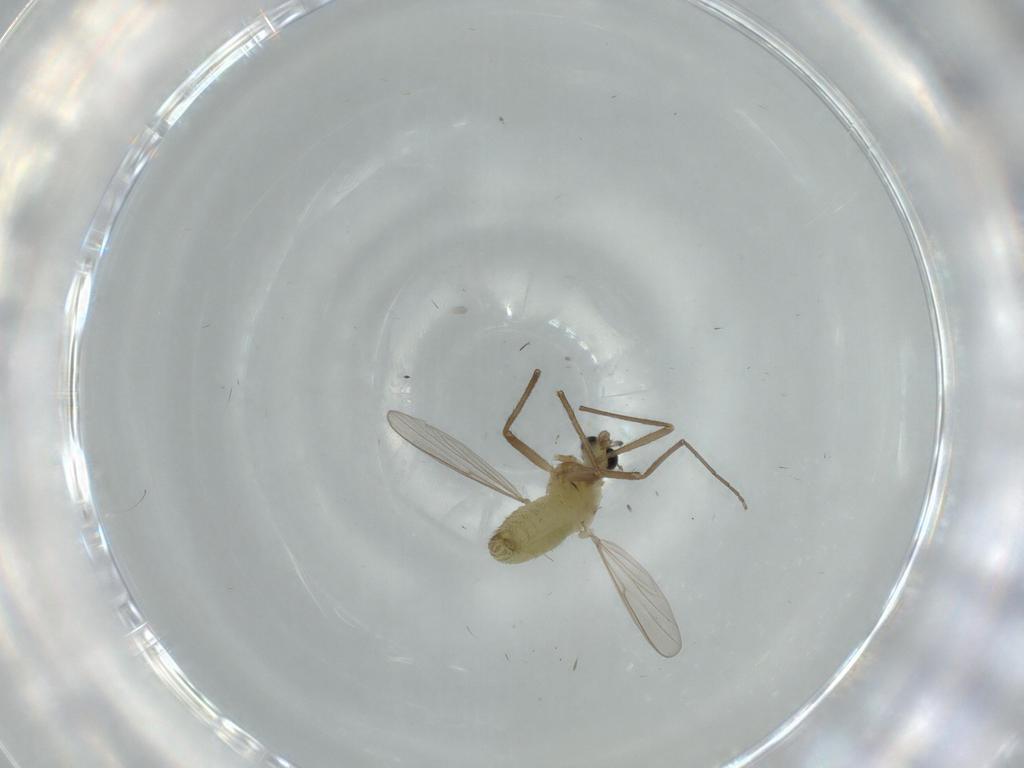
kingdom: Animalia
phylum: Arthropoda
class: Insecta
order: Diptera
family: Chironomidae
